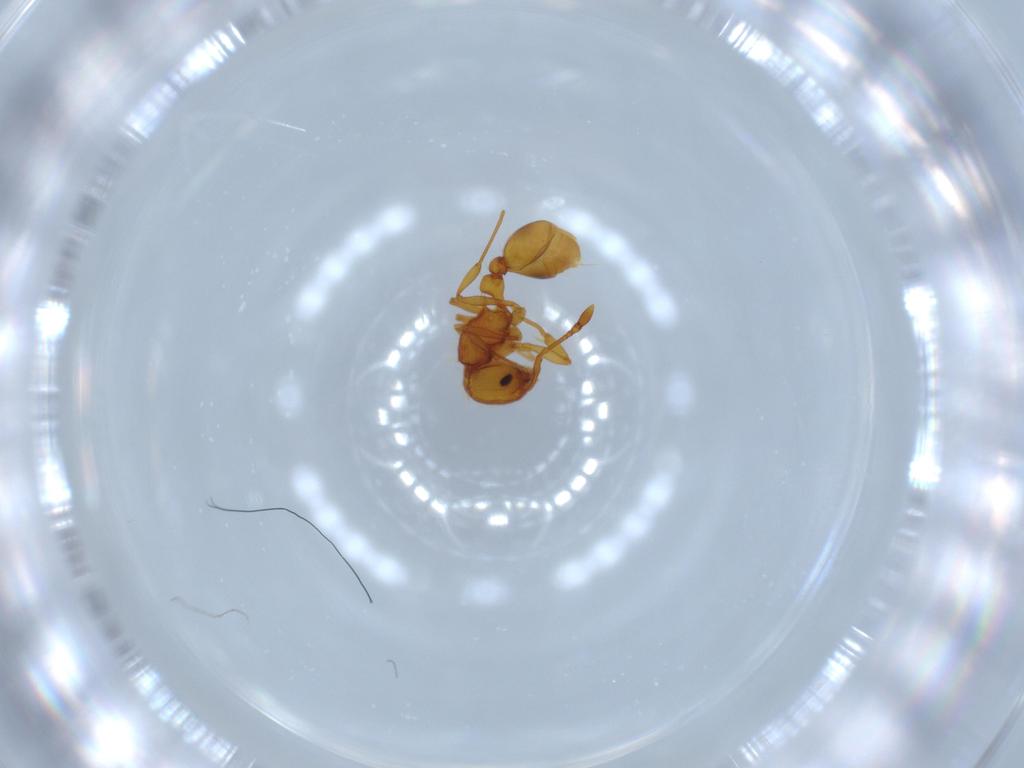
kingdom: Animalia
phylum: Arthropoda
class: Insecta
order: Hymenoptera
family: Formicidae
